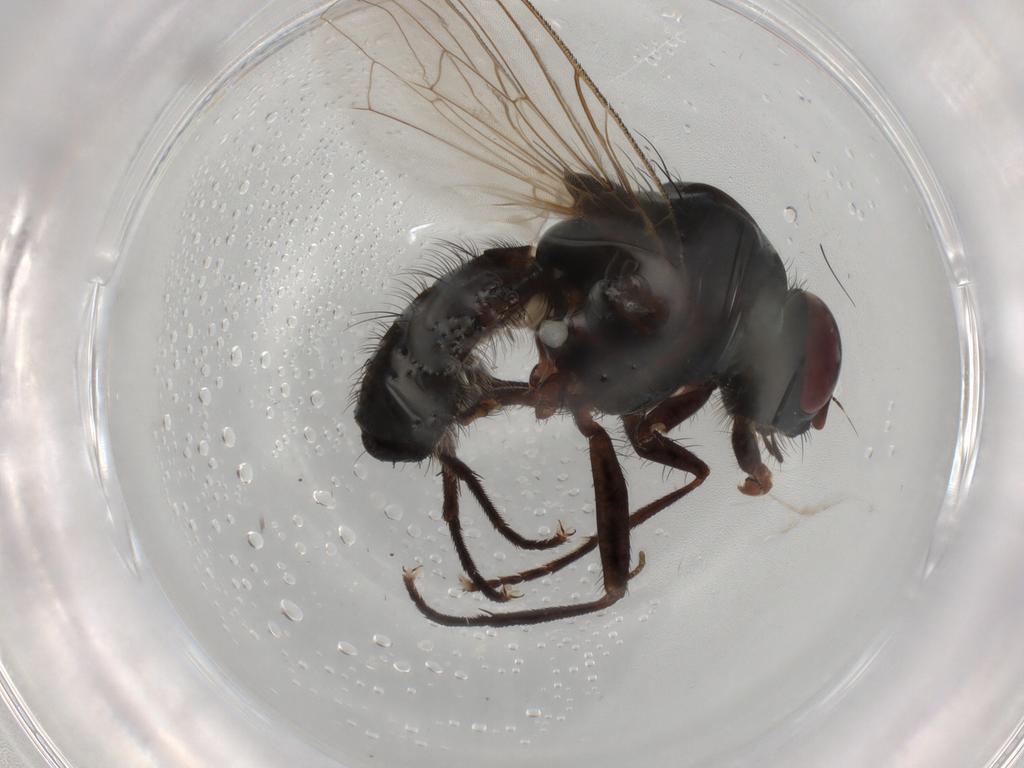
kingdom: Animalia
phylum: Arthropoda
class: Insecta
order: Diptera
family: Anthomyiidae
